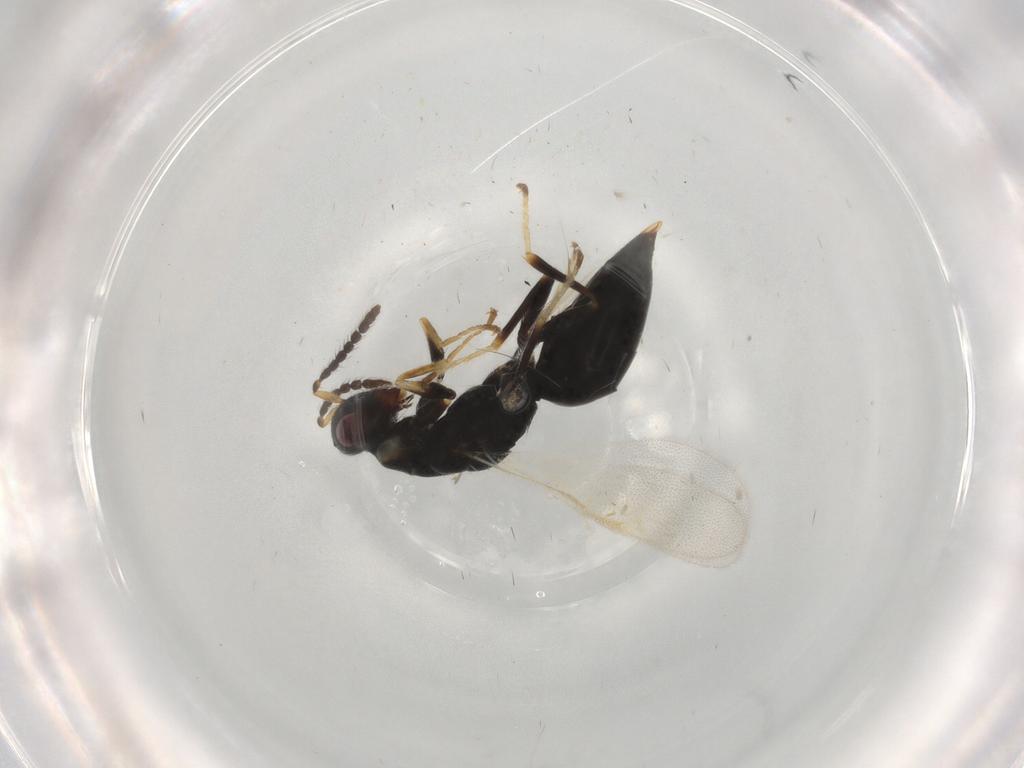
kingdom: Animalia
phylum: Arthropoda
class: Insecta
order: Hymenoptera
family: Eurytomidae
